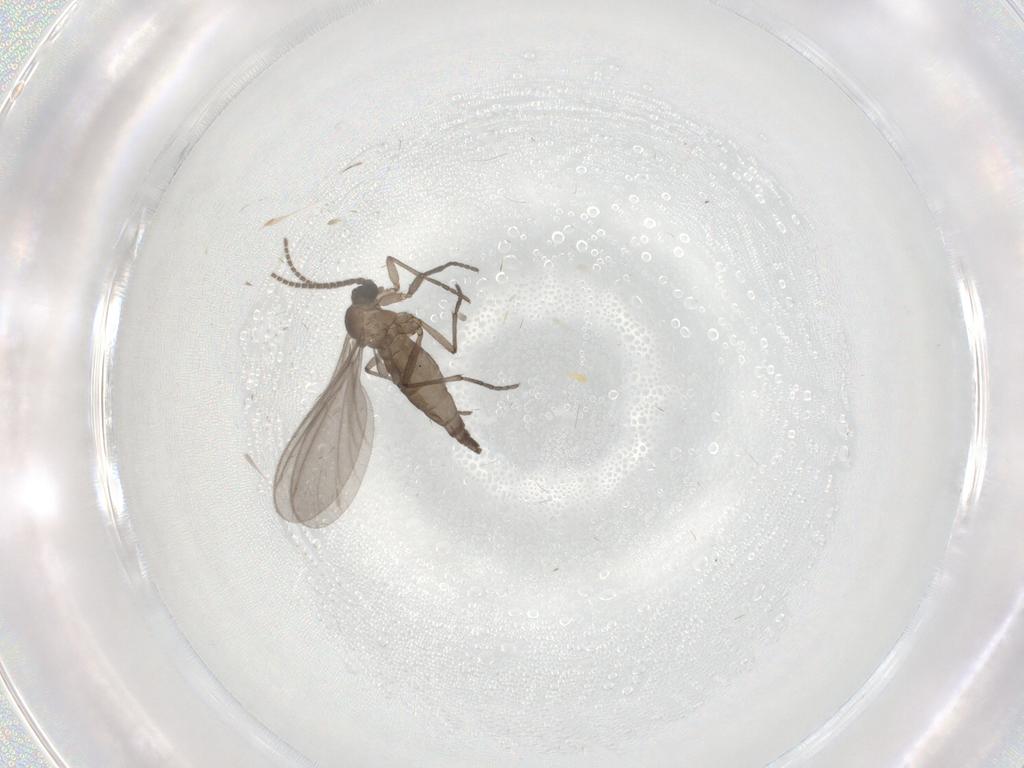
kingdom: Animalia
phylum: Arthropoda
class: Insecta
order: Diptera
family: Sciaridae
